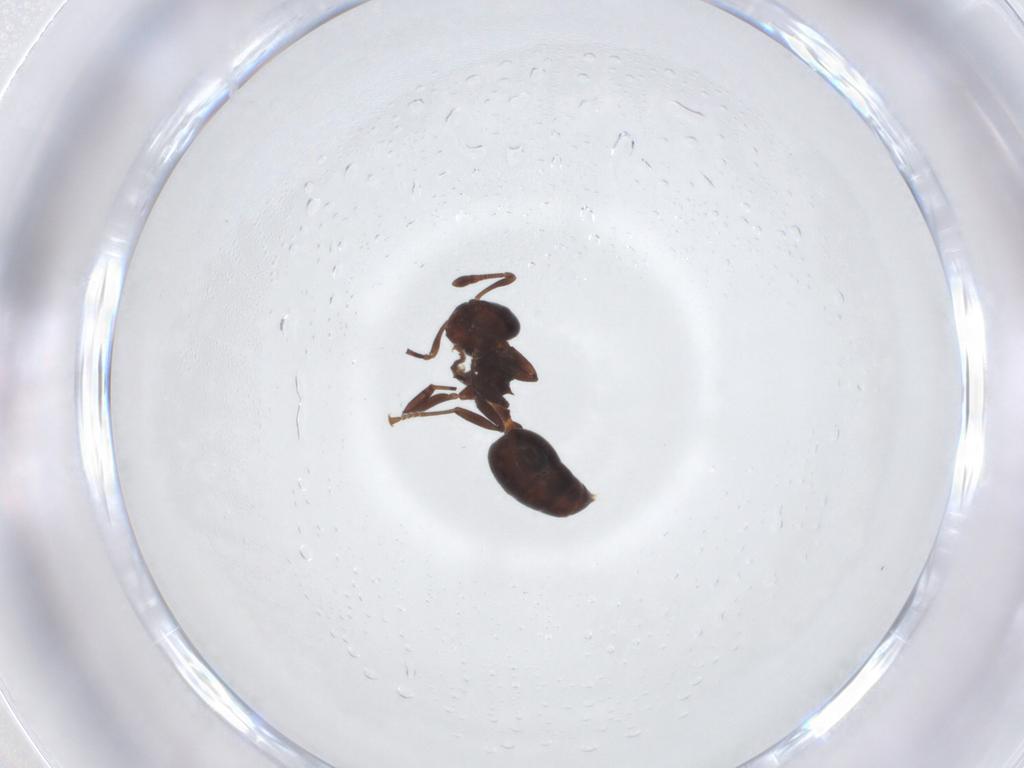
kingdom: Animalia
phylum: Arthropoda
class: Insecta
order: Hymenoptera
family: Formicidae
